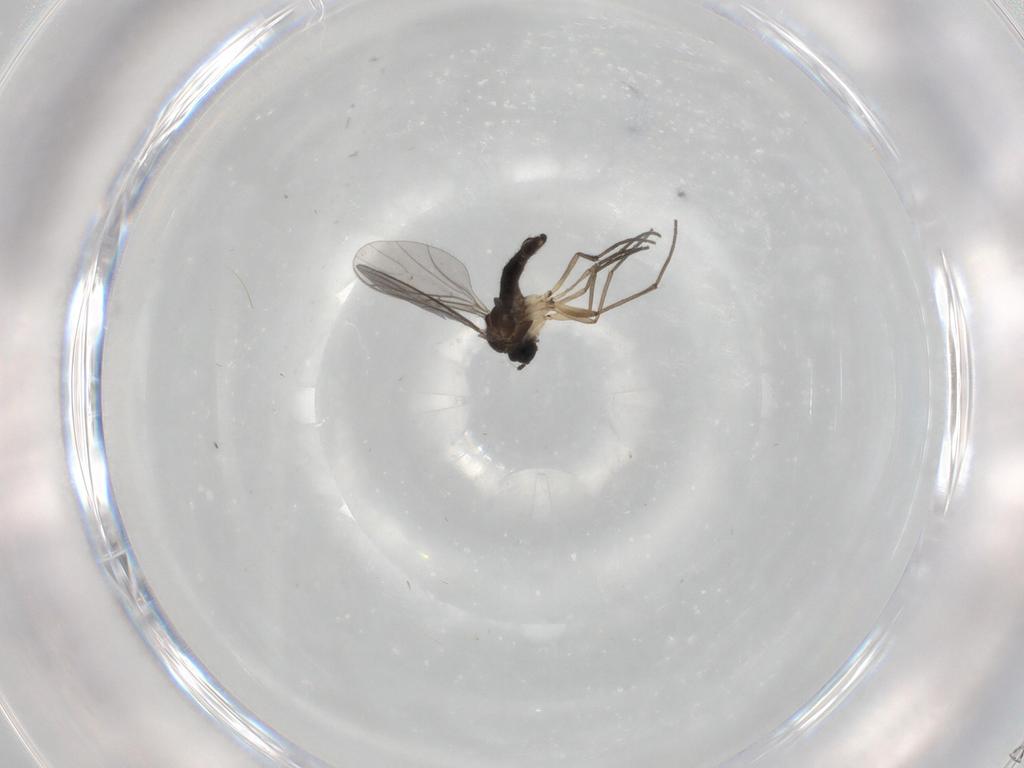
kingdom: Animalia
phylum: Arthropoda
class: Insecta
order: Diptera
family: Sciaridae
